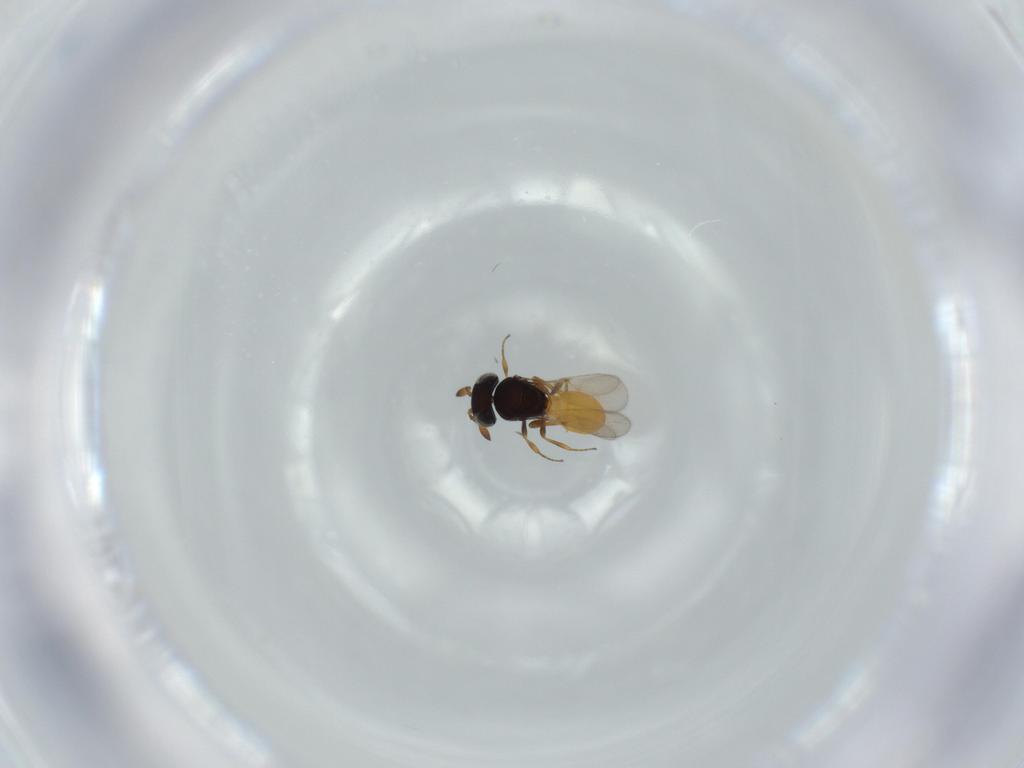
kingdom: Animalia
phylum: Arthropoda
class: Insecta
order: Hymenoptera
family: Scelionidae
